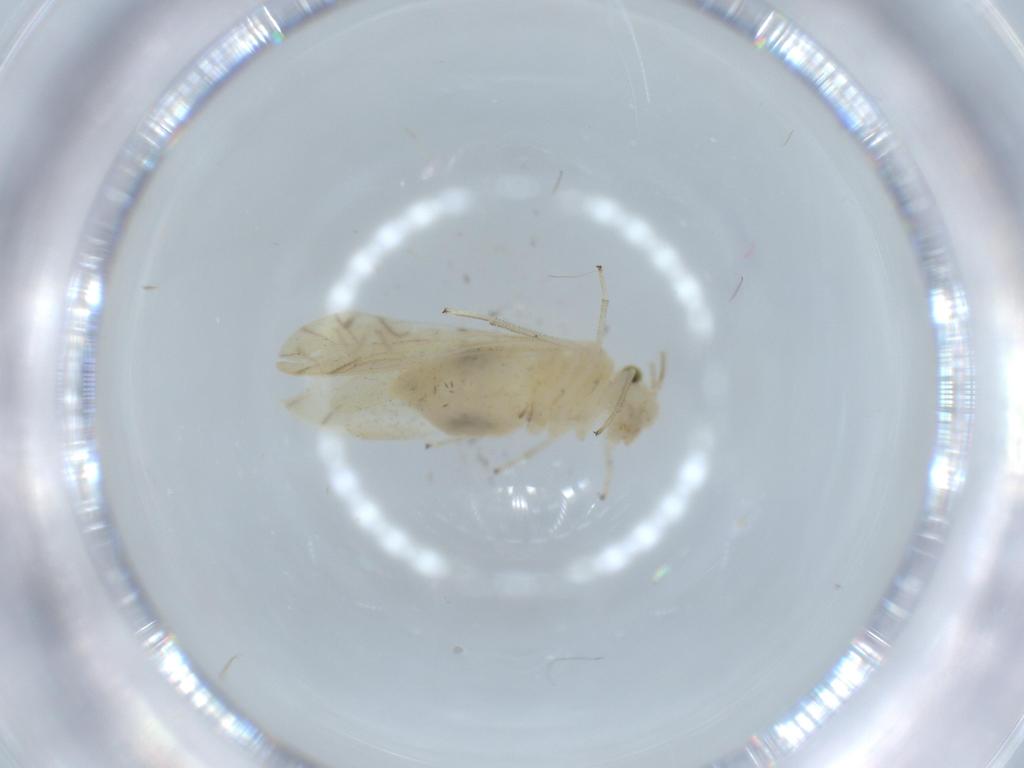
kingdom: Animalia
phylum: Arthropoda
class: Insecta
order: Psocodea
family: Caeciliusidae
